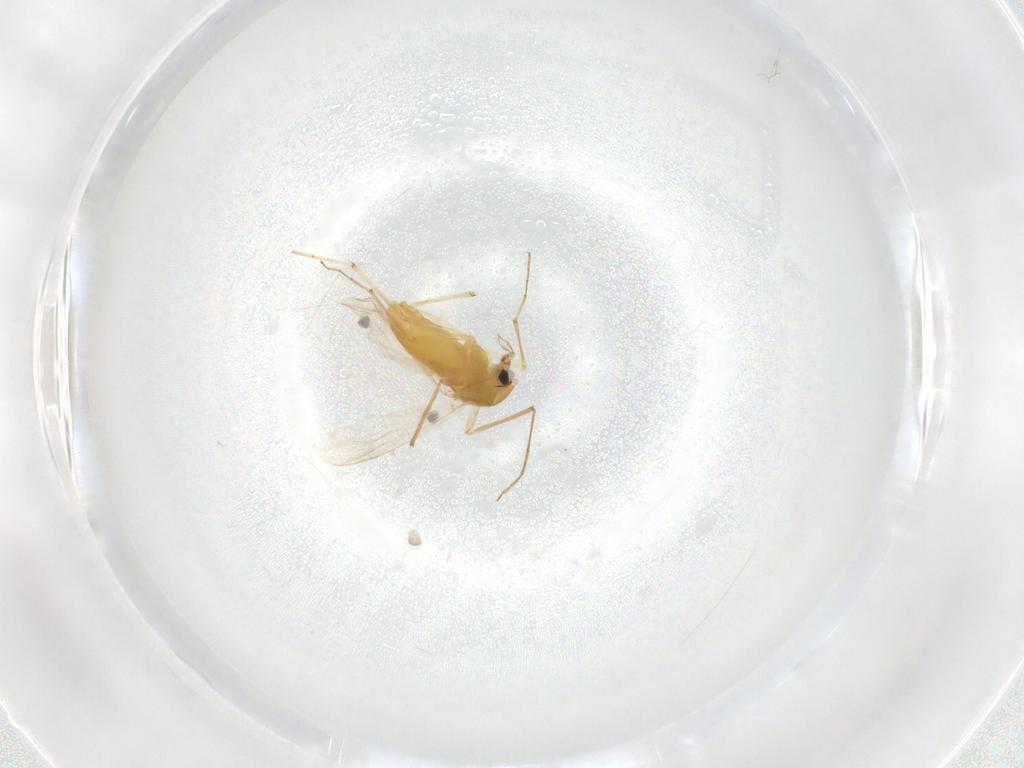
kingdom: Animalia
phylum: Arthropoda
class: Insecta
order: Diptera
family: Chironomidae
